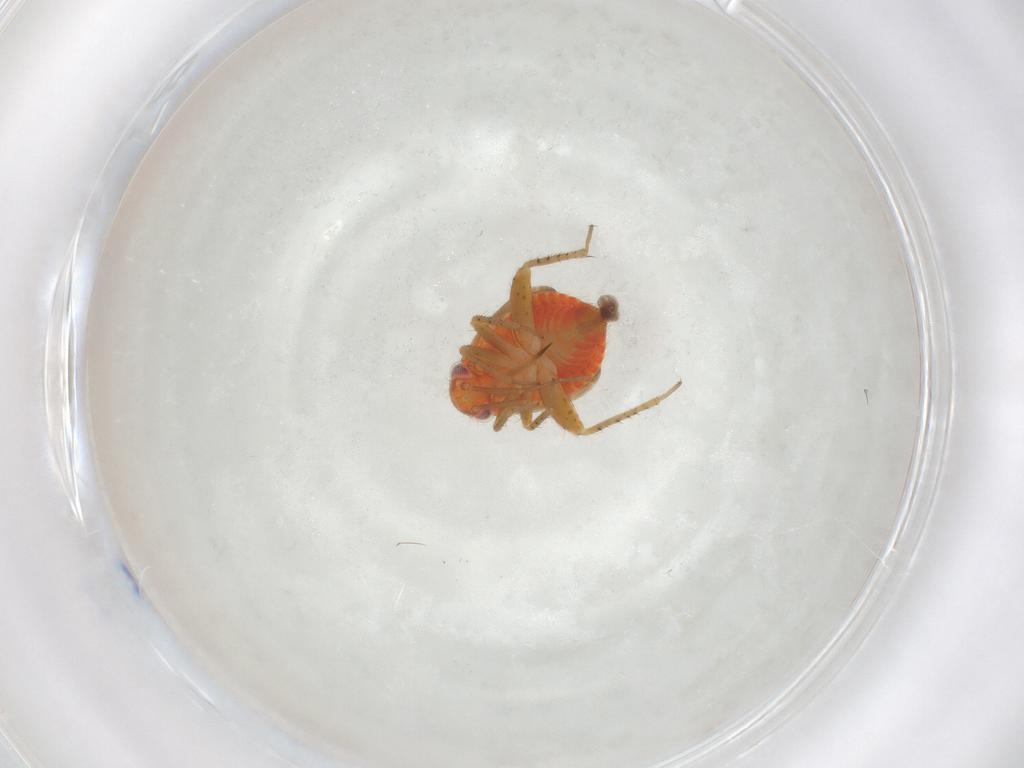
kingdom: Animalia
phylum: Arthropoda
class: Insecta
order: Hemiptera
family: Miridae
